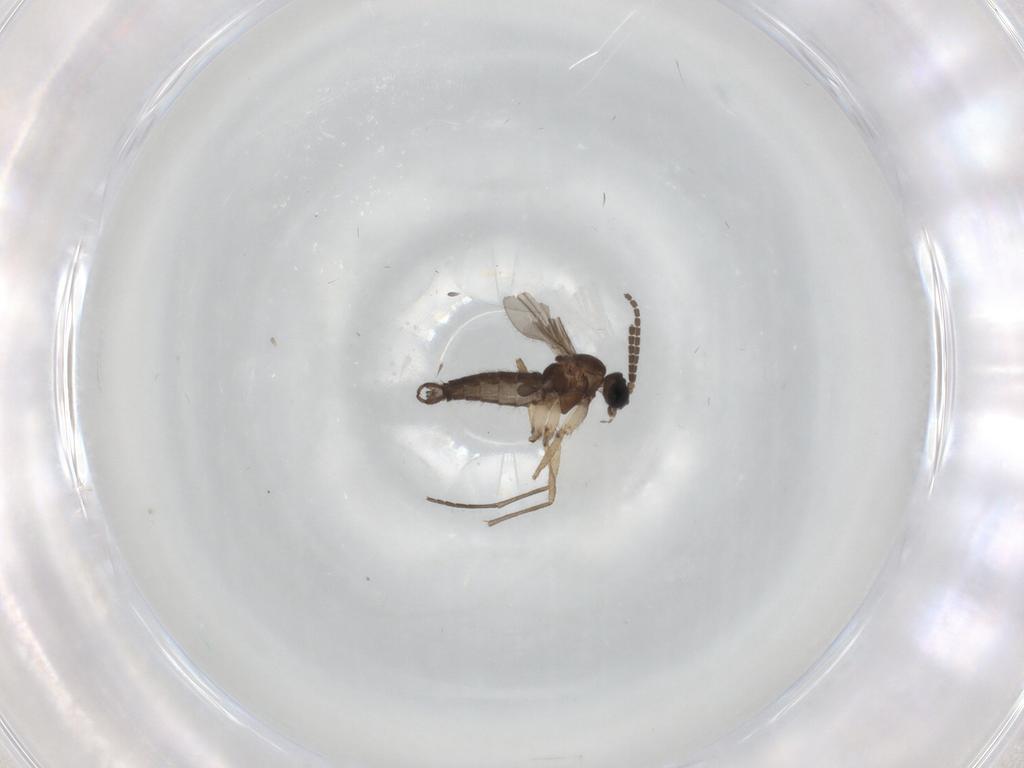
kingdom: Animalia
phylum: Arthropoda
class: Insecta
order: Diptera
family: Sciaridae
